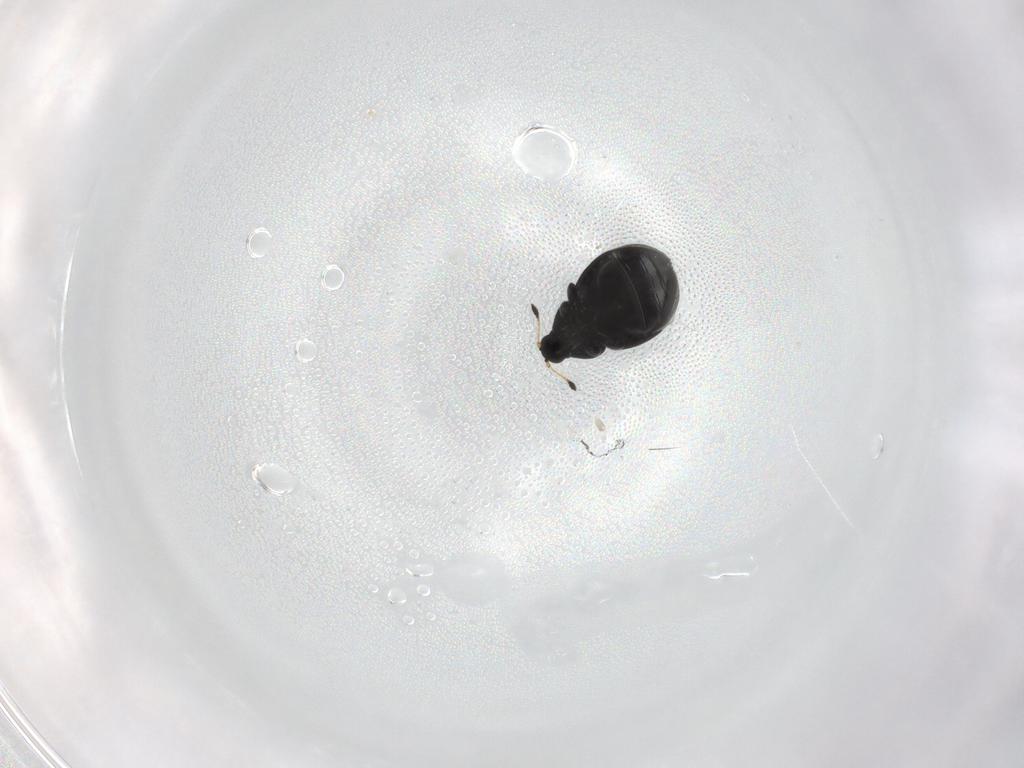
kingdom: Animalia
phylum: Arthropoda
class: Insecta
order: Coleoptera
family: Curculionidae
